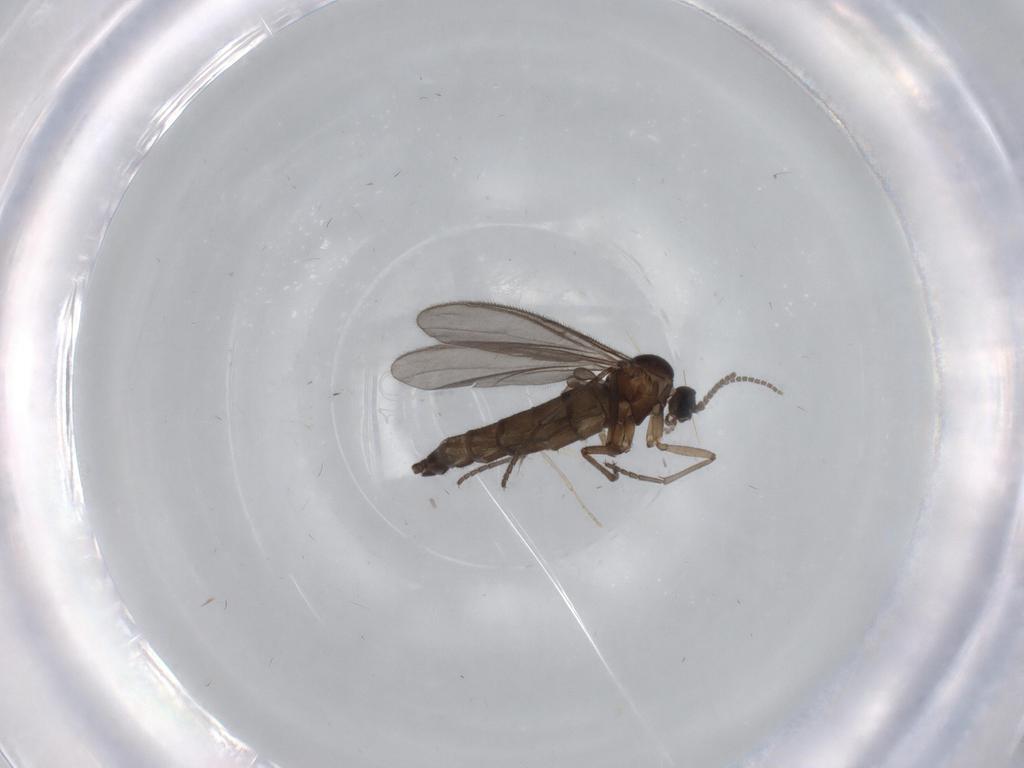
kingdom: Animalia
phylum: Arthropoda
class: Insecta
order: Diptera
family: Sciaridae
